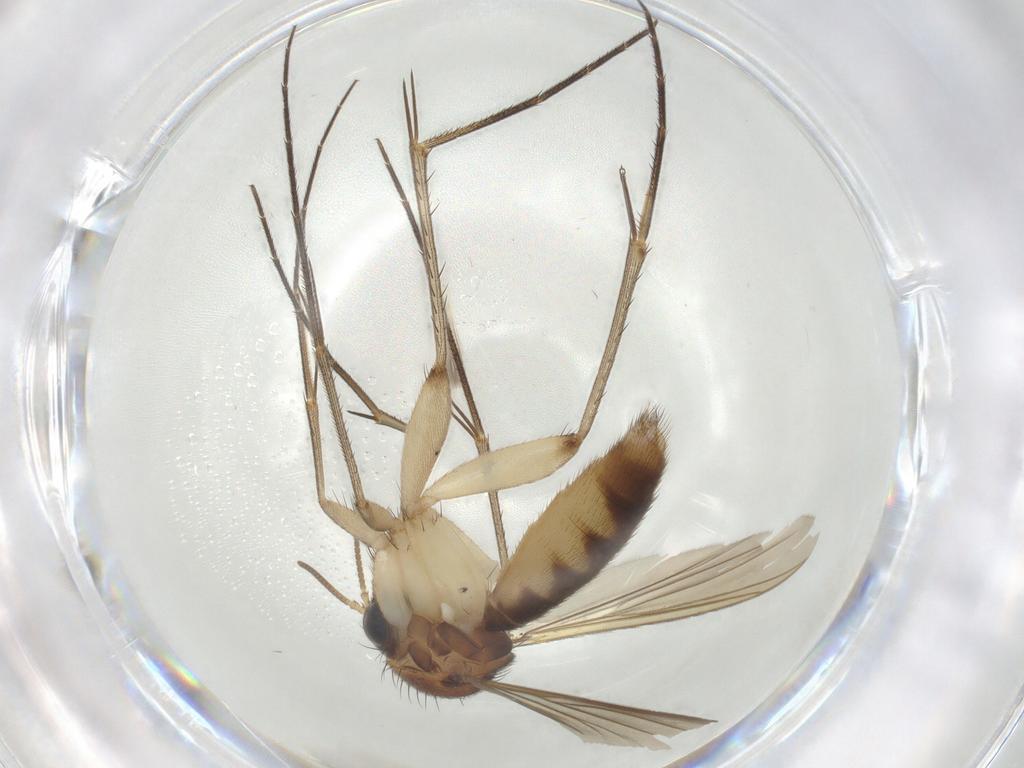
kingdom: Animalia
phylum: Arthropoda
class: Insecta
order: Diptera
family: Mycetophilidae
